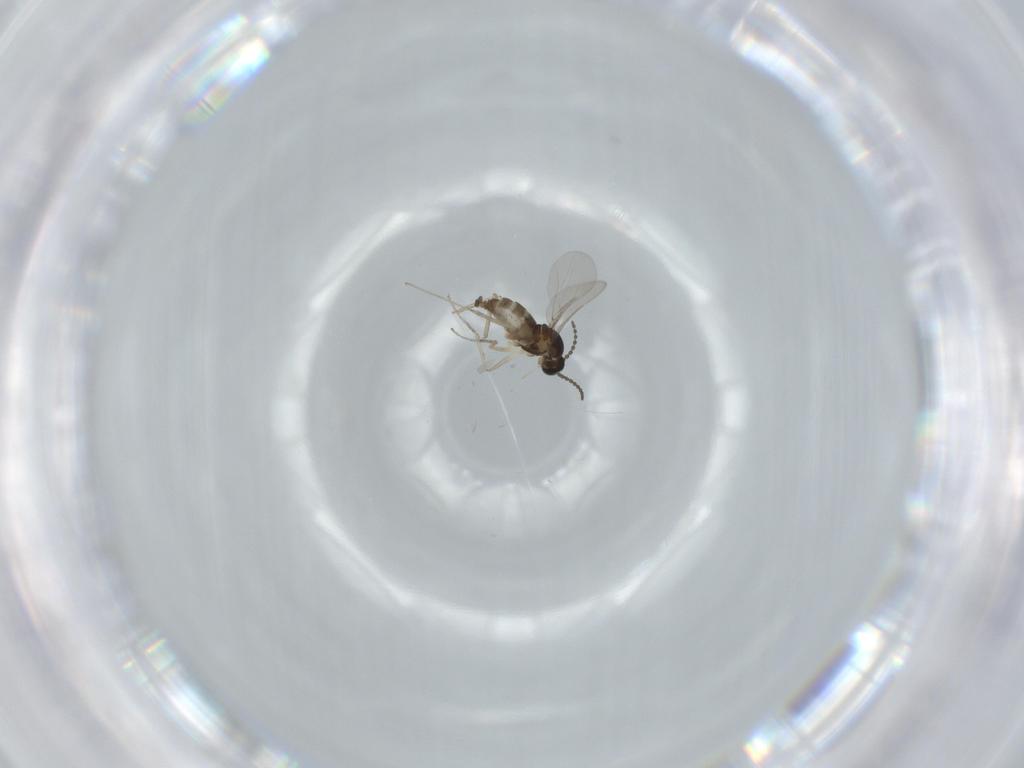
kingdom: Animalia
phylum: Arthropoda
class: Insecta
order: Diptera
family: Cecidomyiidae
